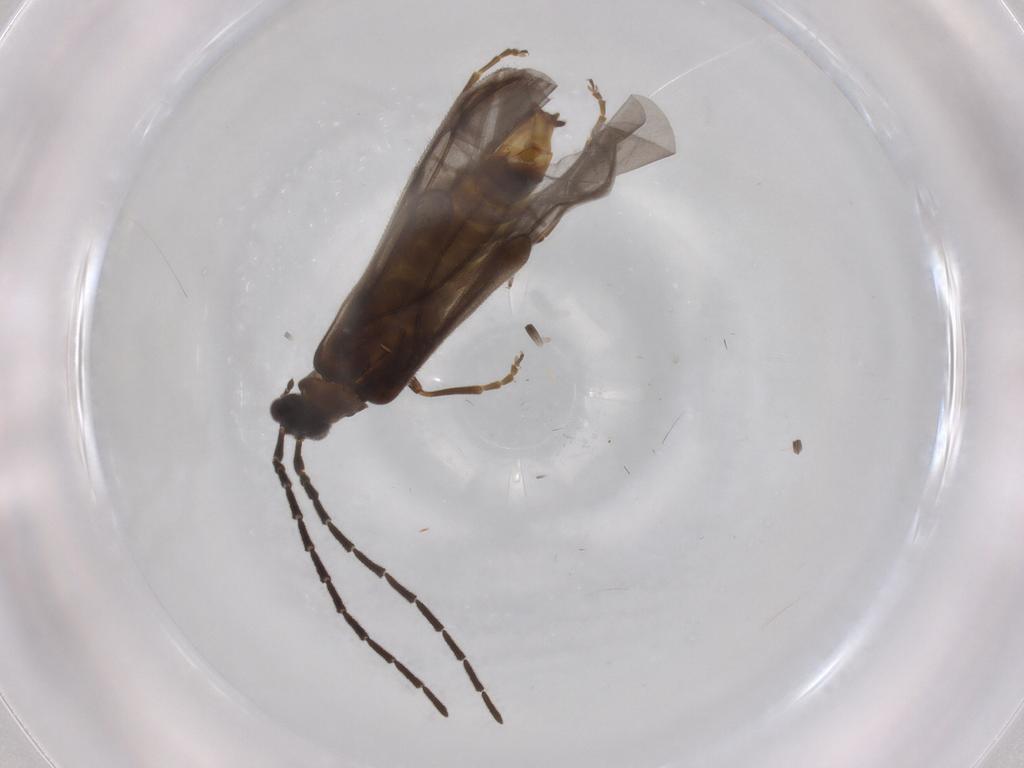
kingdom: Animalia
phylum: Arthropoda
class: Insecta
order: Coleoptera
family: Cantharidae
